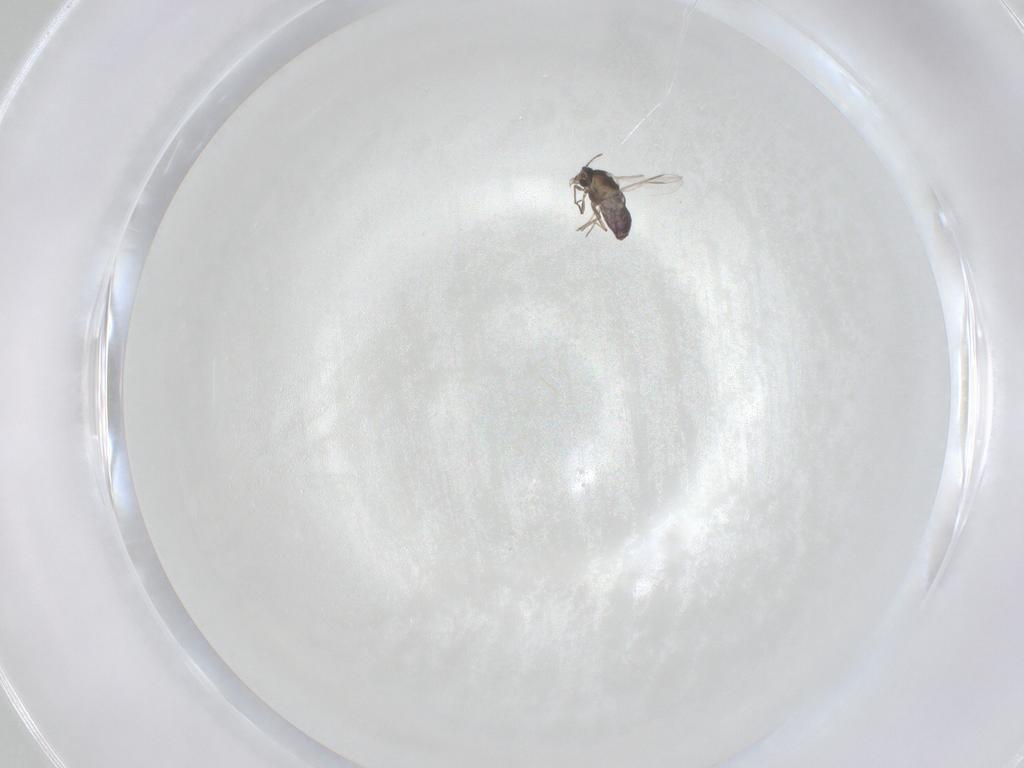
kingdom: Animalia
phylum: Arthropoda
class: Insecta
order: Diptera
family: Chironomidae
